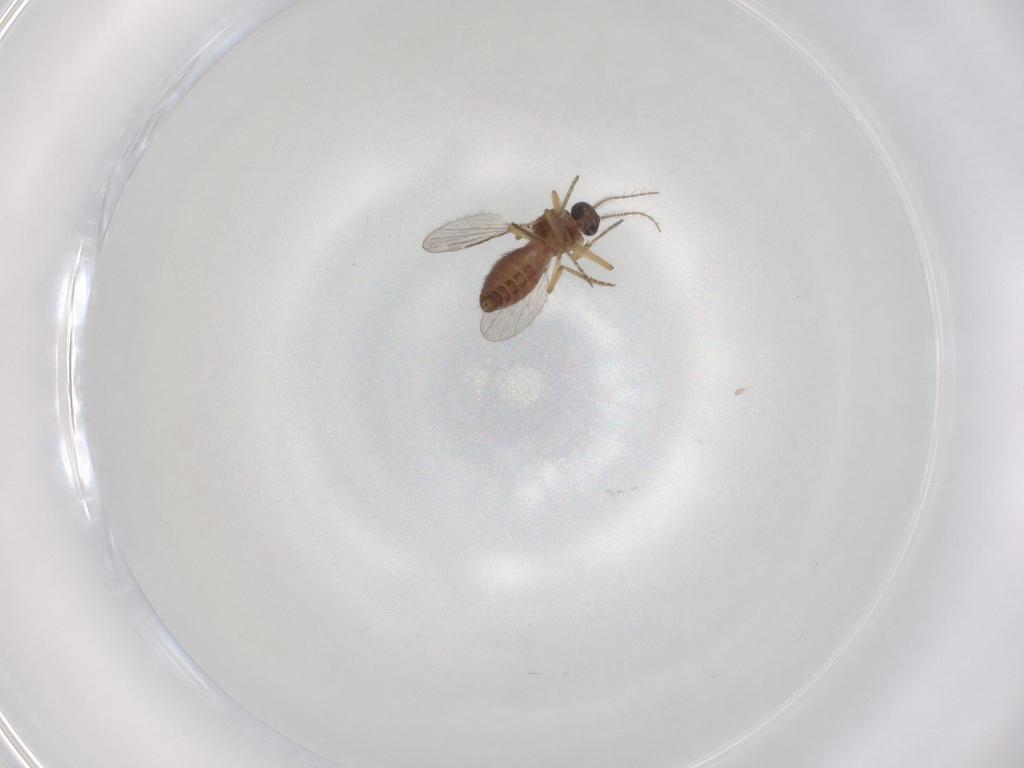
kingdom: Animalia
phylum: Arthropoda
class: Insecta
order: Diptera
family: Ceratopogonidae
